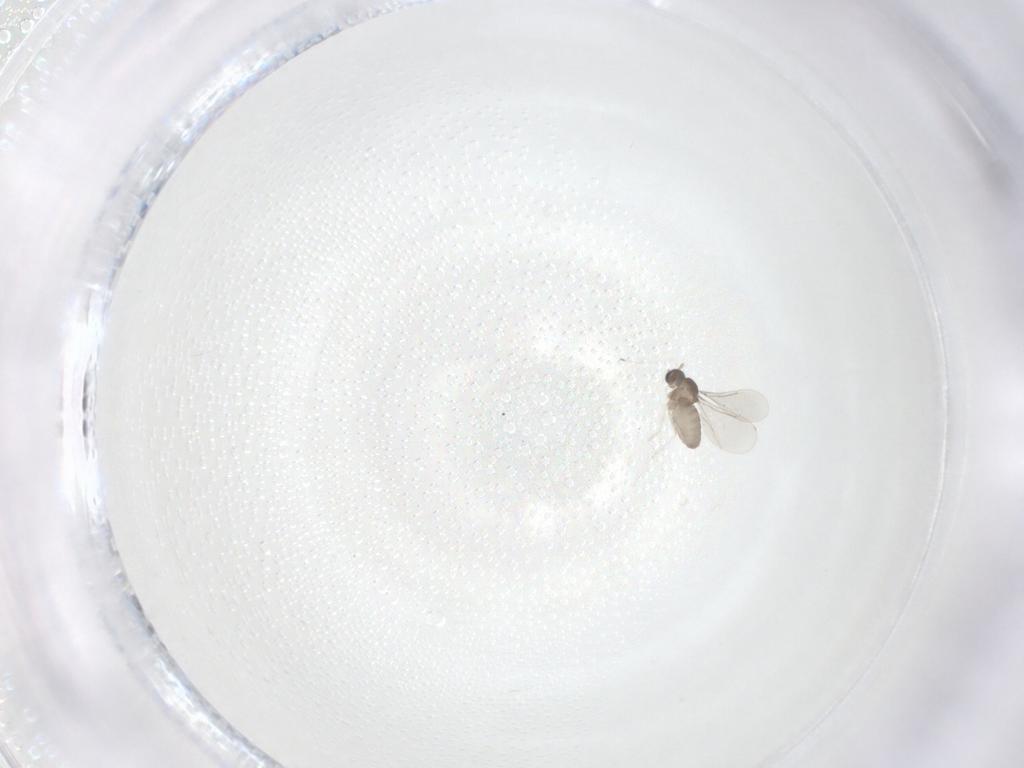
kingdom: Animalia
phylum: Arthropoda
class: Insecta
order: Diptera
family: Cecidomyiidae
